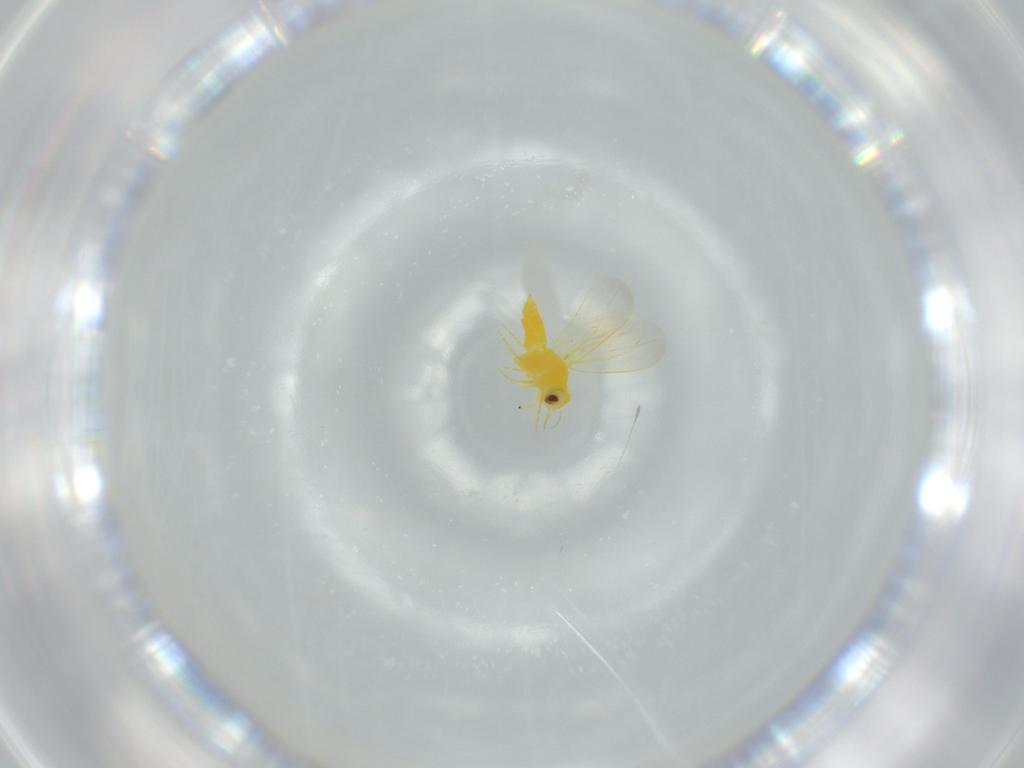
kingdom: Animalia
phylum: Arthropoda
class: Insecta
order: Hemiptera
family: Aleyrodidae
